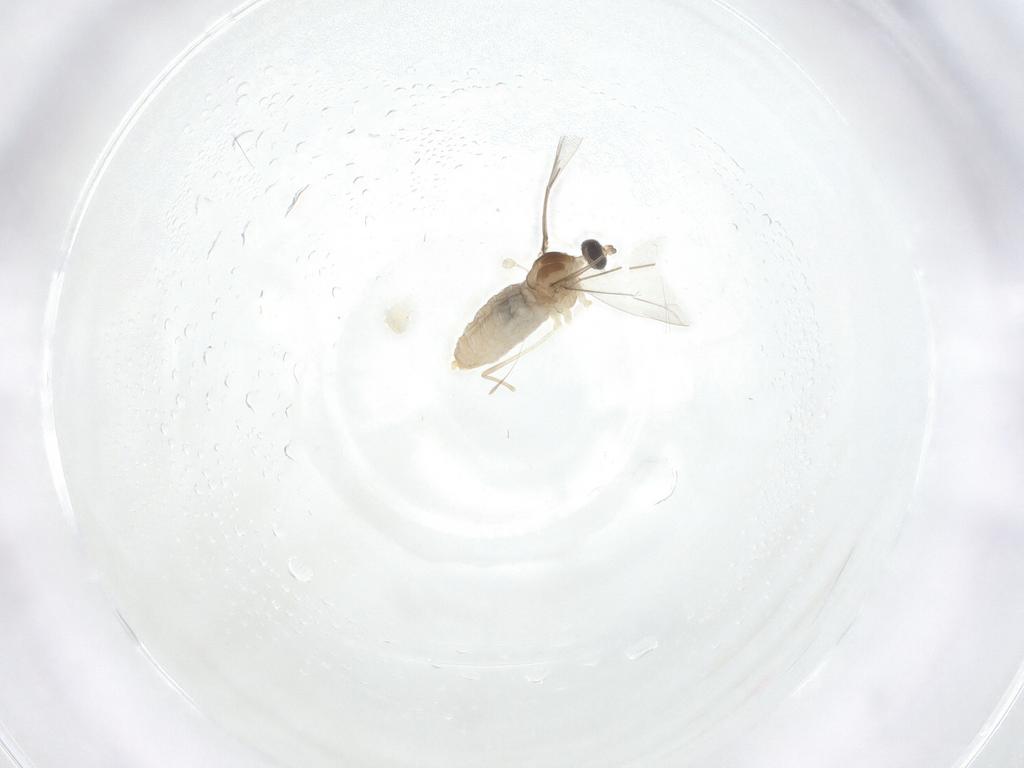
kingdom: Animalia
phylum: Arthropoda
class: Insecta
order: Diptera
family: Cecidomyiidae
